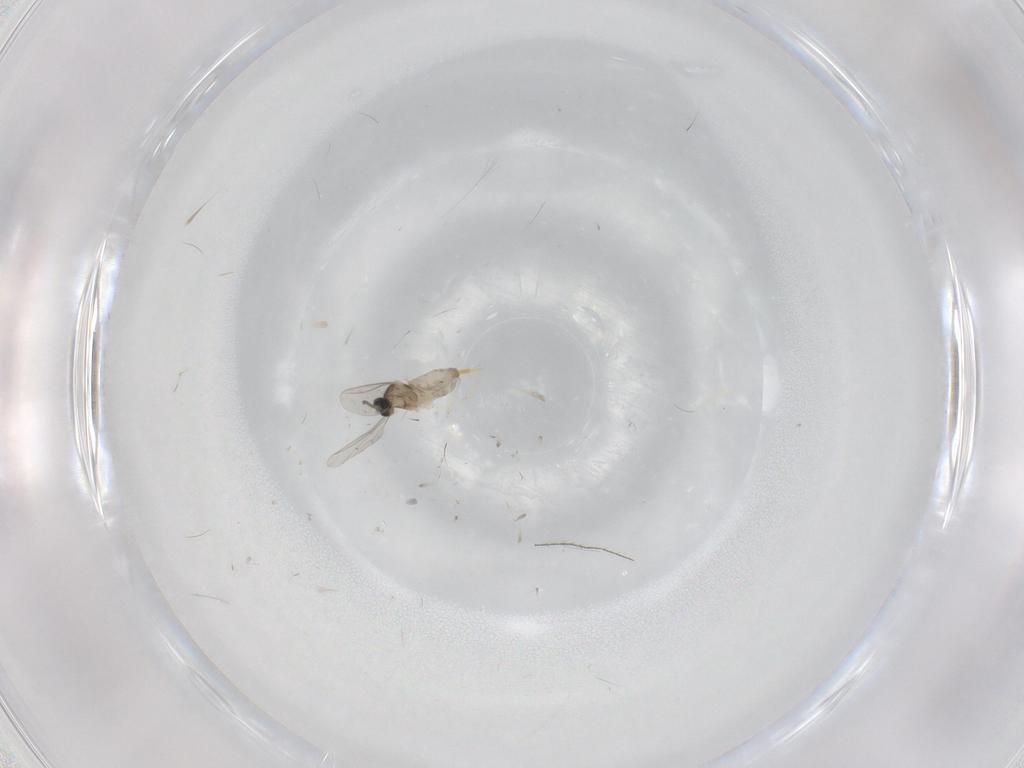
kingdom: Animalia
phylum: Arthropoda
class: Insecta
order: Diptera
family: Cecidomyiidae
